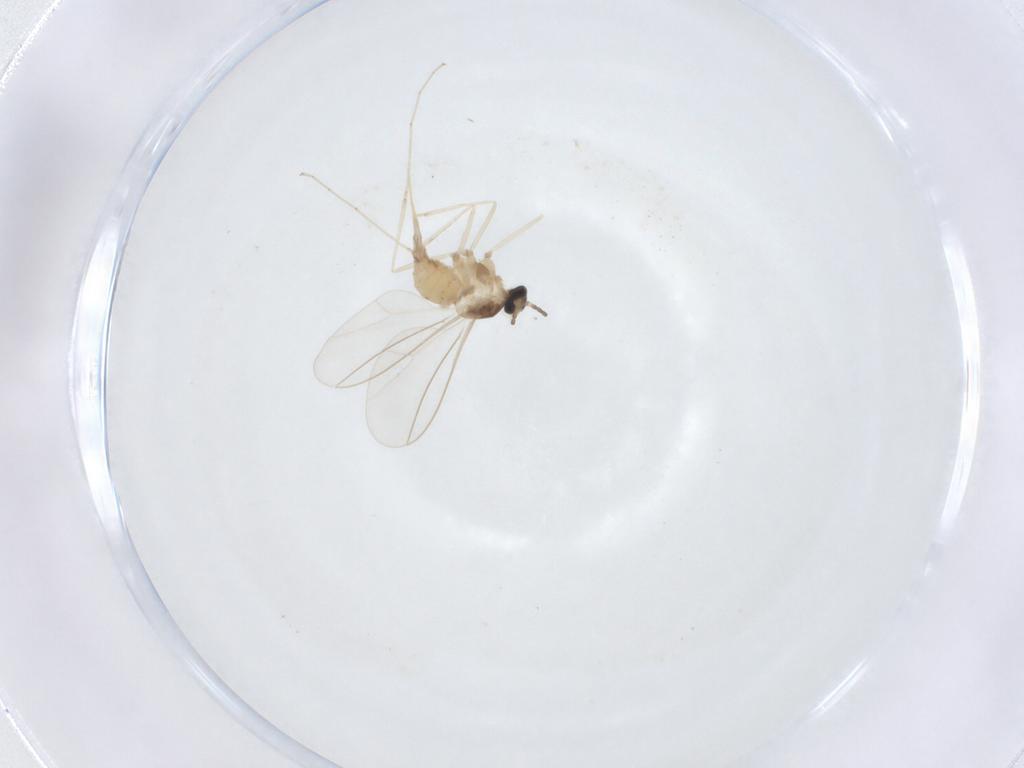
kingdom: Animalia
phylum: Arthropoda
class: Insecta
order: Diptera
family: Cecidomyiidae
